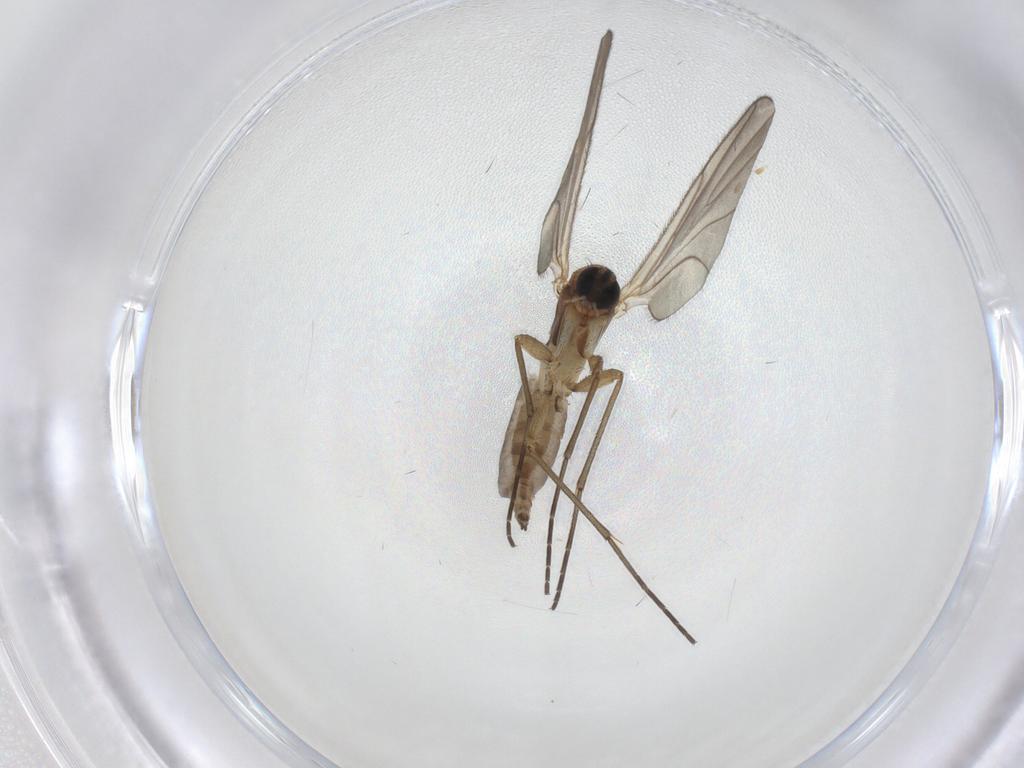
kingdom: Animalia
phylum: Arthropoda
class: Insecta
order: Diptera
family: Sciaridae
